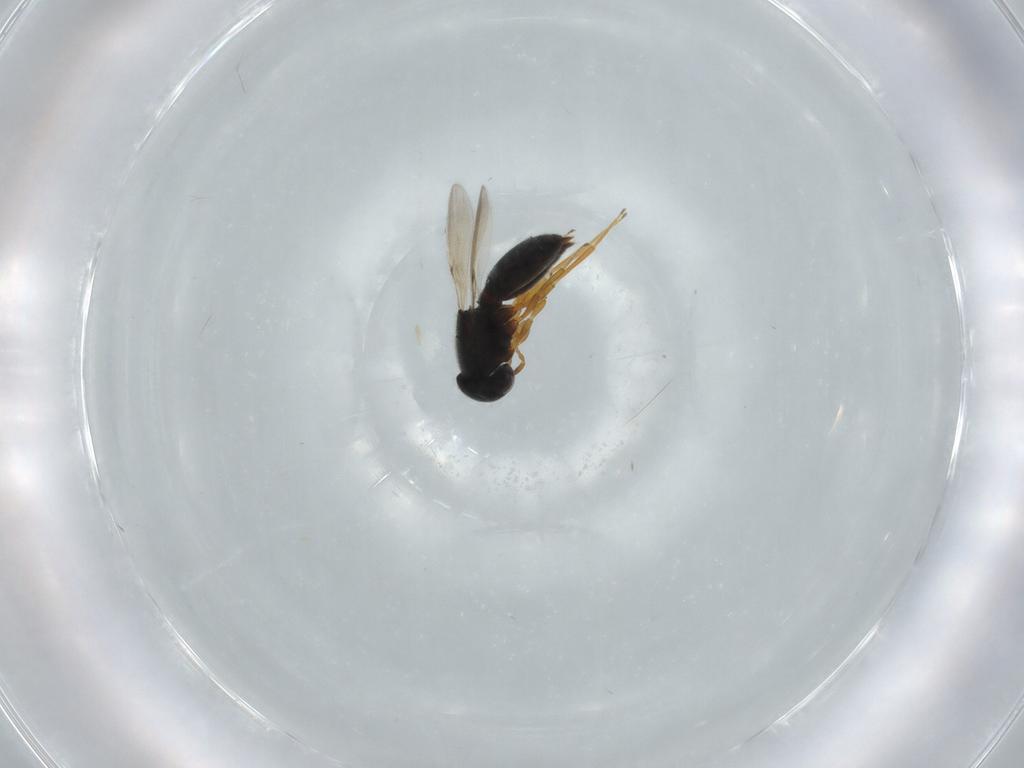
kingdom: Animalia
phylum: Arthropoda
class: Insecta
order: Hymenoptera
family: Scelionidae
